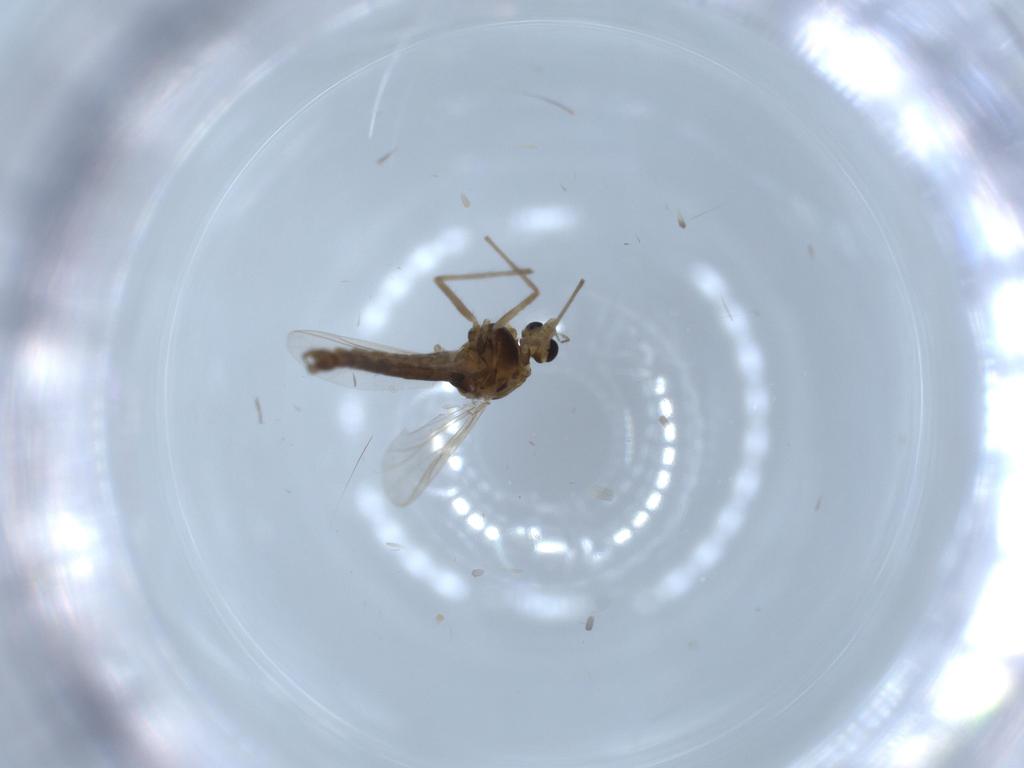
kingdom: Animalia
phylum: Arthropoda
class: Insecta
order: Diptera
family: Chironomidae
